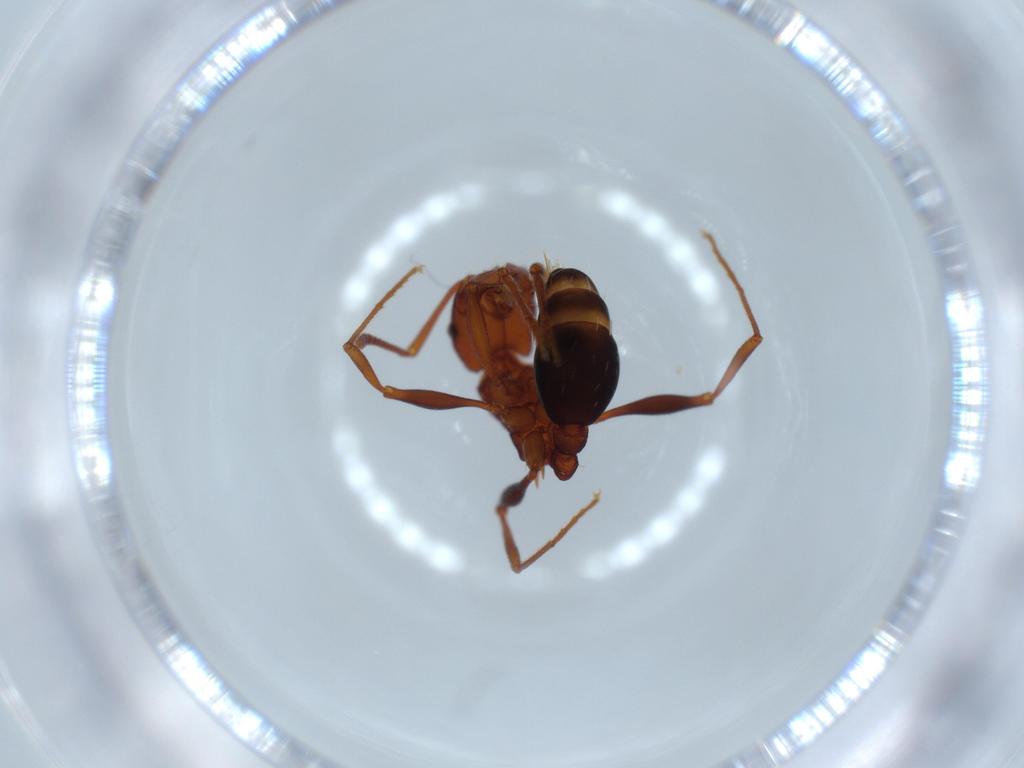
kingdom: Animalia
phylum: Arthropoda
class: Insecta
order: Hymenoptera
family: Formicidae
